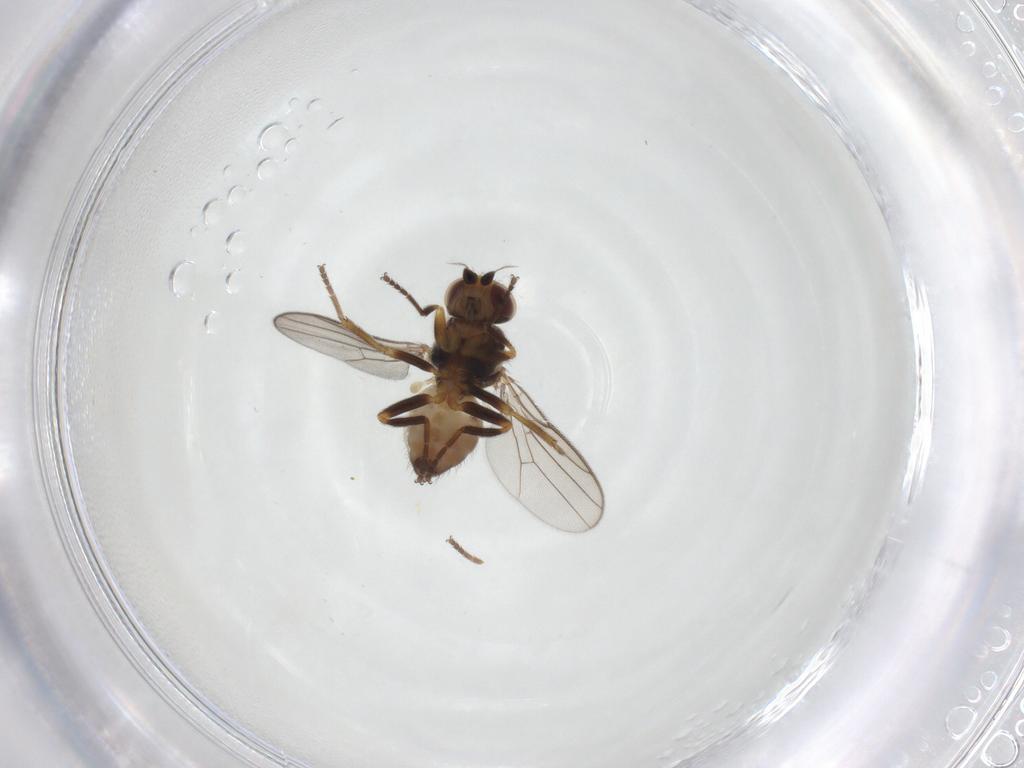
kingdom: Animalia
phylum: Arthropoda
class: Insecta
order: Diptera
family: Chloropidae
